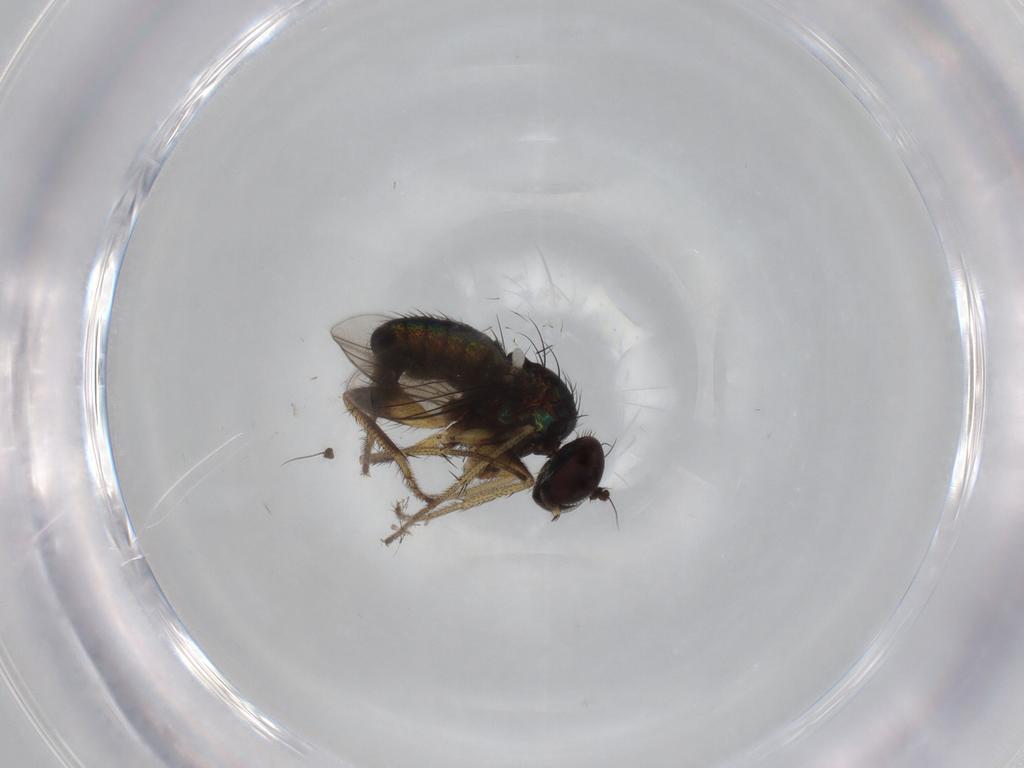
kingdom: Animalia
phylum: Arthropoda
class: Insecta
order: Diptera
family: Dolichopodidae
